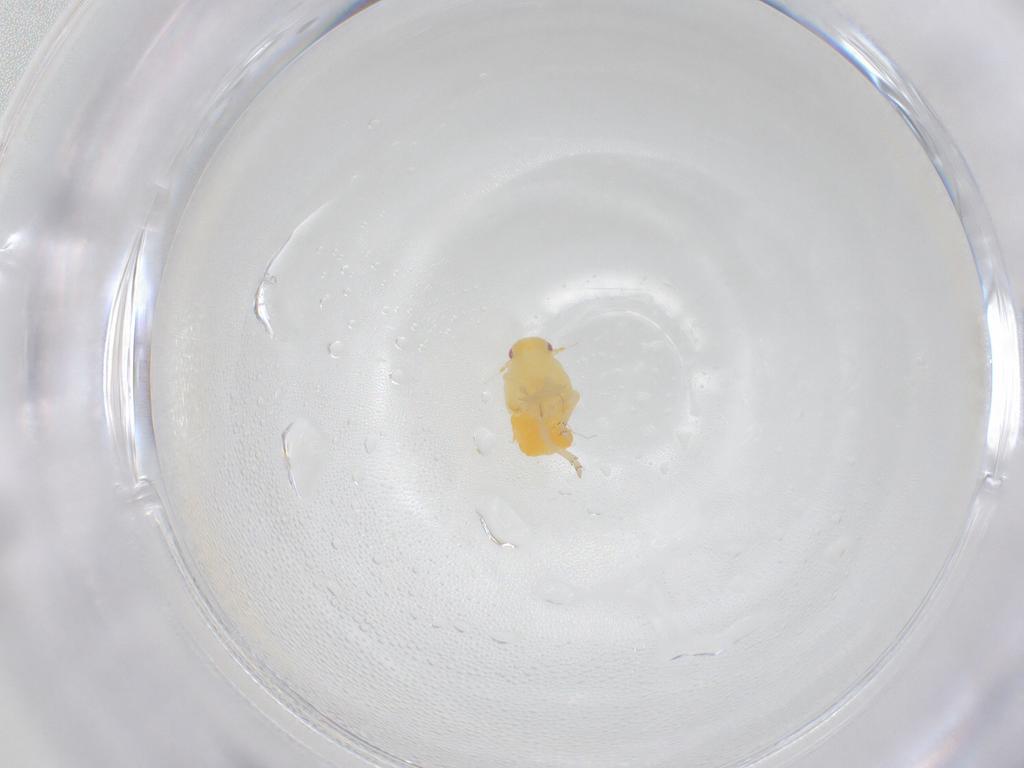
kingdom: Animalia
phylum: Arthropoda
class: Insecta
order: Hemiptera
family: Flatidae
